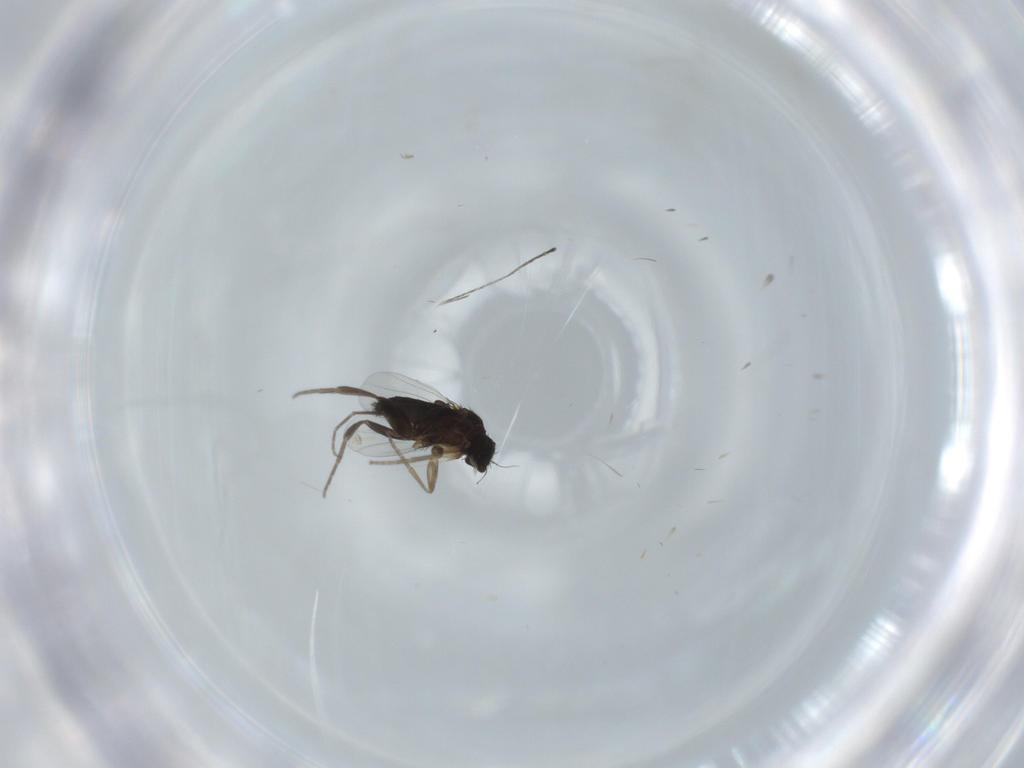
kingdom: Animalia
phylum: Arthropoda
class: Insecta
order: Diptera
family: Phoridae
